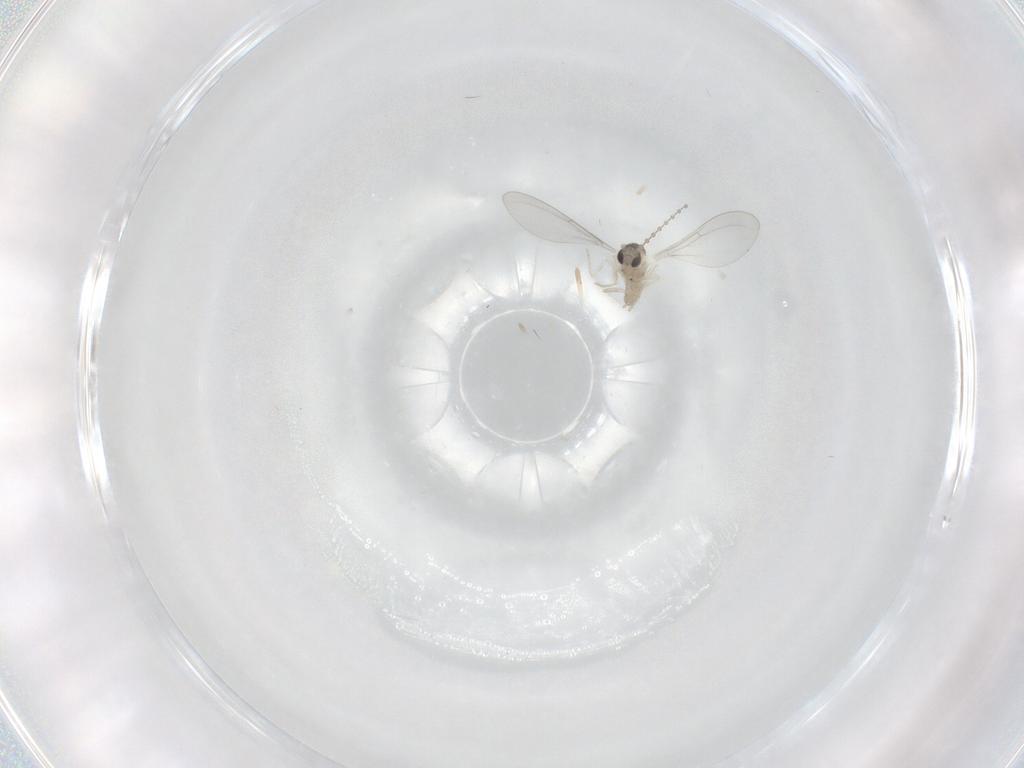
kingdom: Animalia
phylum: Arthropoda
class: Insecta
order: Diptera
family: Cecidomyiidae
